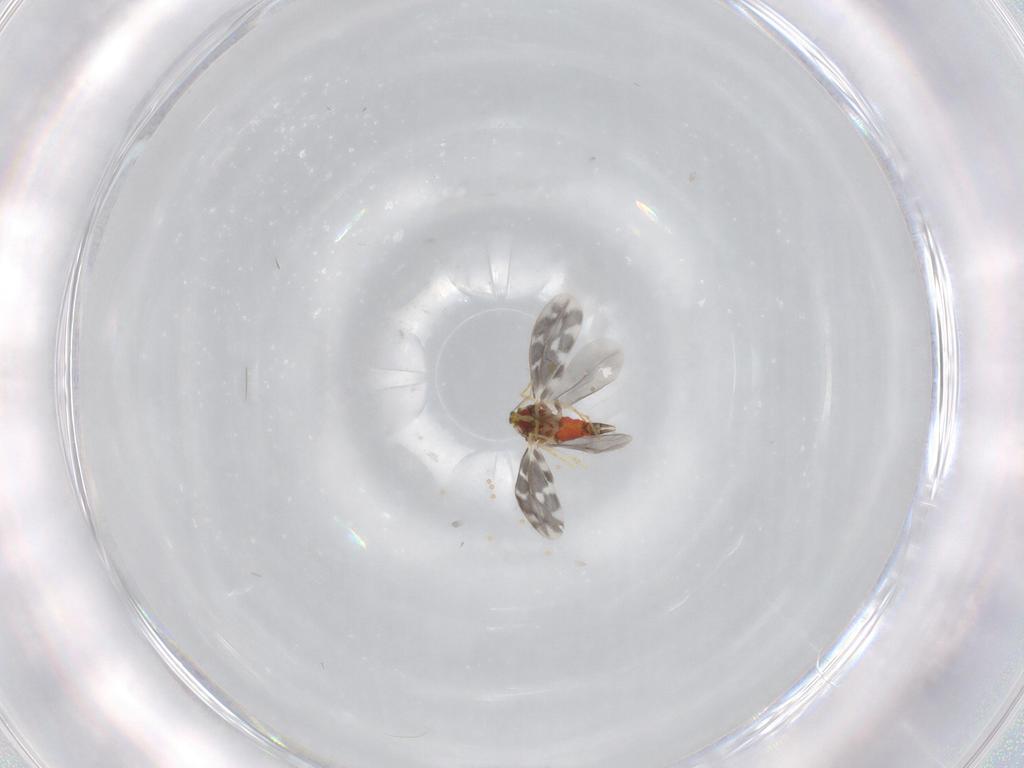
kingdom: Animalia
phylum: Arthropoda
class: Insecta
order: Hemiptera
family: Aleyrodidae
